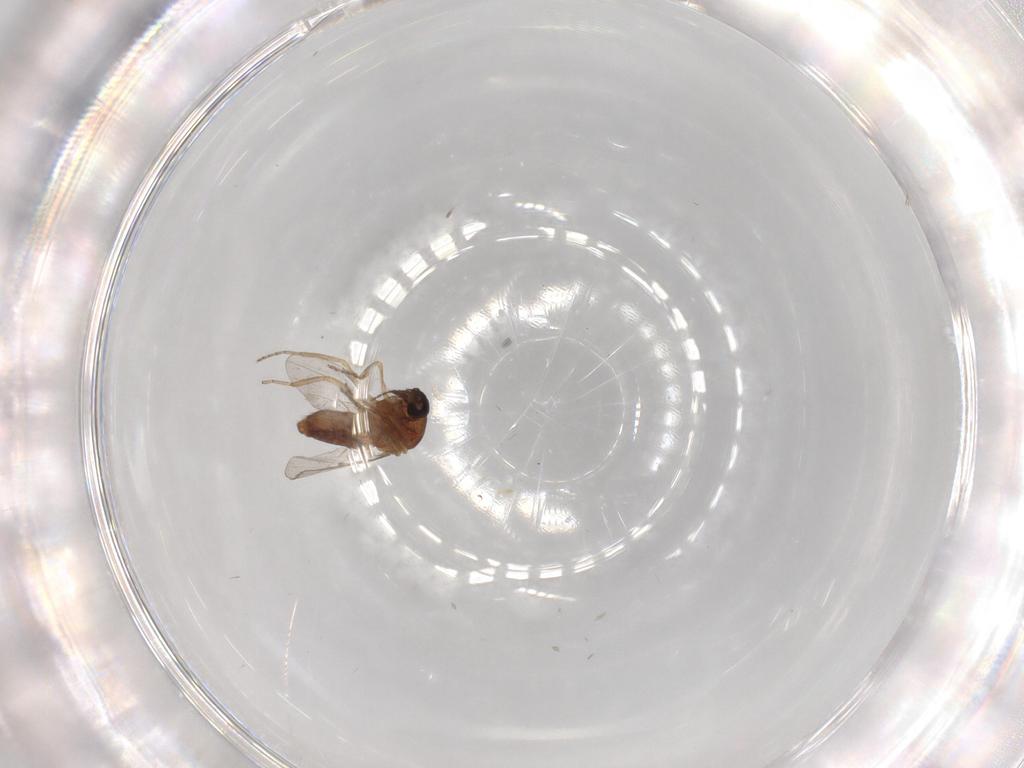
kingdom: Animalia
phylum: Arthropoda
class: Insecta
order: Diptera
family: Ceratopogonidae
